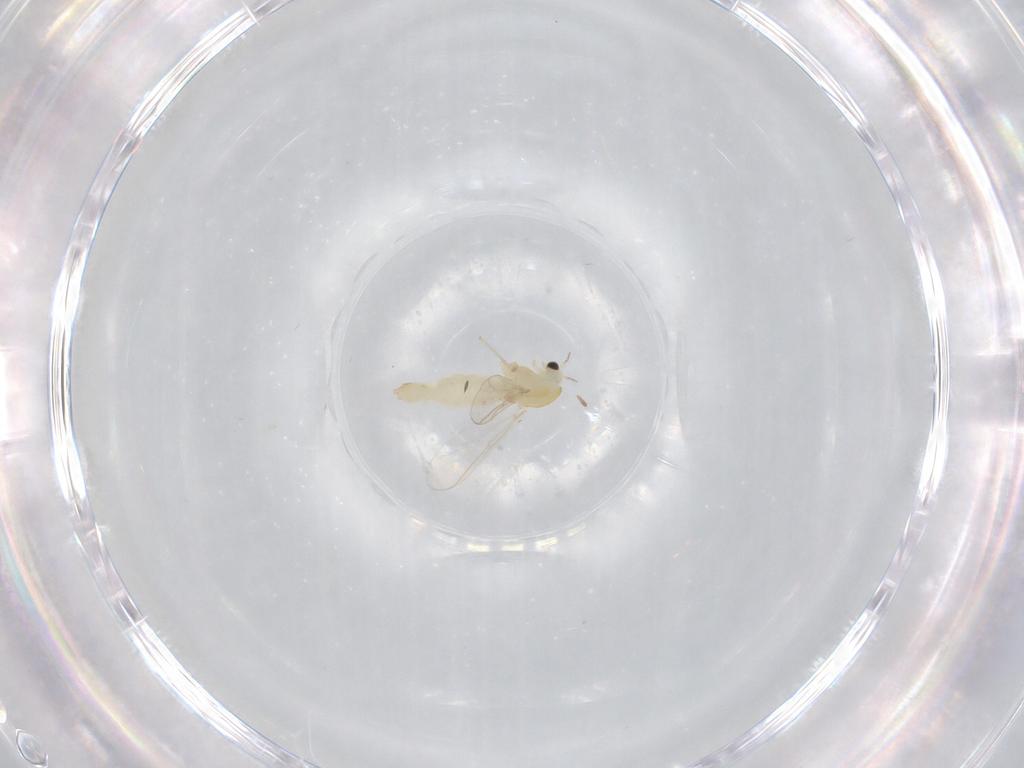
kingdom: Animalia
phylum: Arthropoda
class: Insecta
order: Diptera
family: Chironomidae
